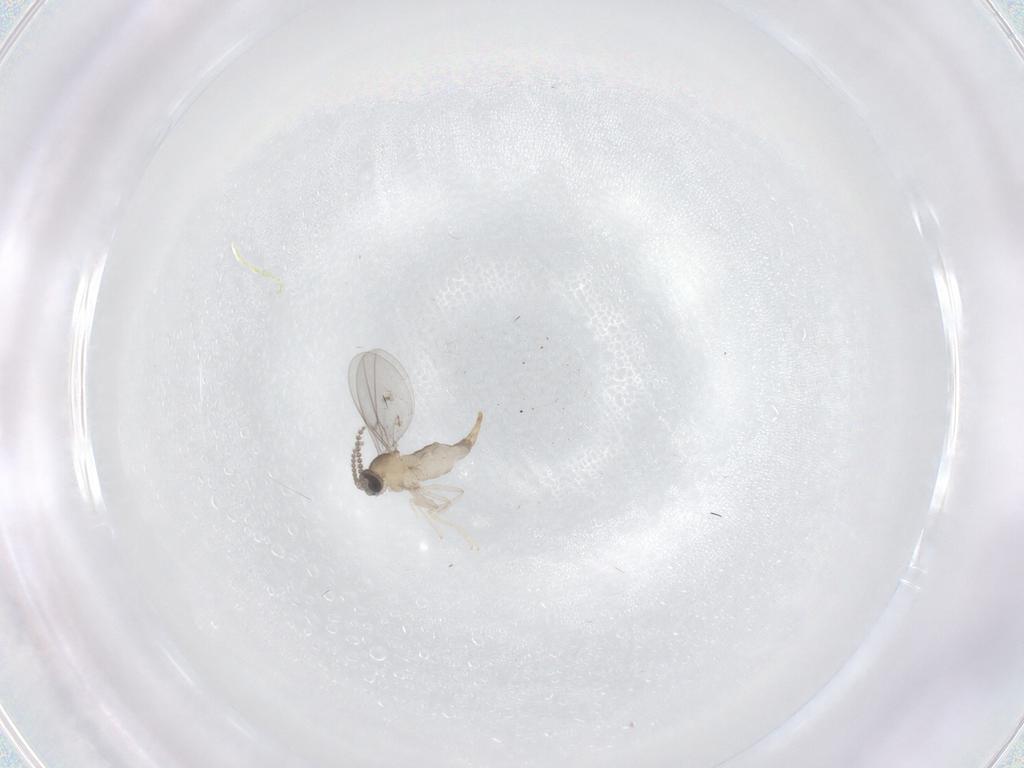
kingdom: Animalia
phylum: Arthropoda
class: Insecta
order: Diptera
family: Cecidomyiidae
